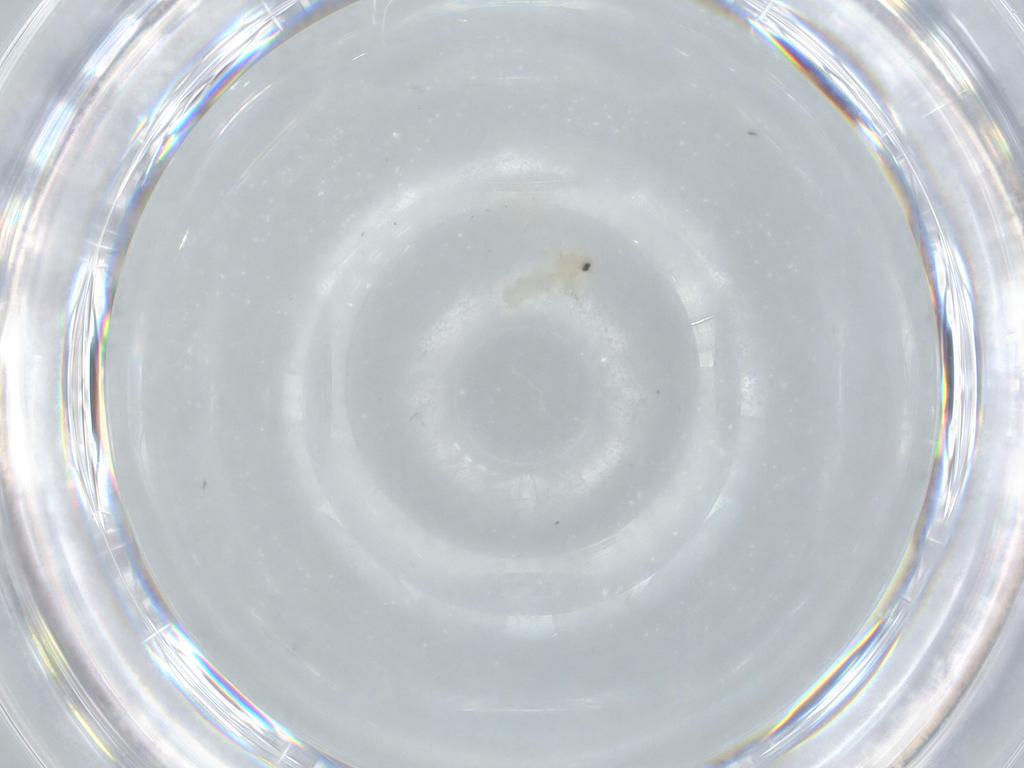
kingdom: Animalia
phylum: Arthropoda
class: Insecta
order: Hemiptera
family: Aleyrodidae
